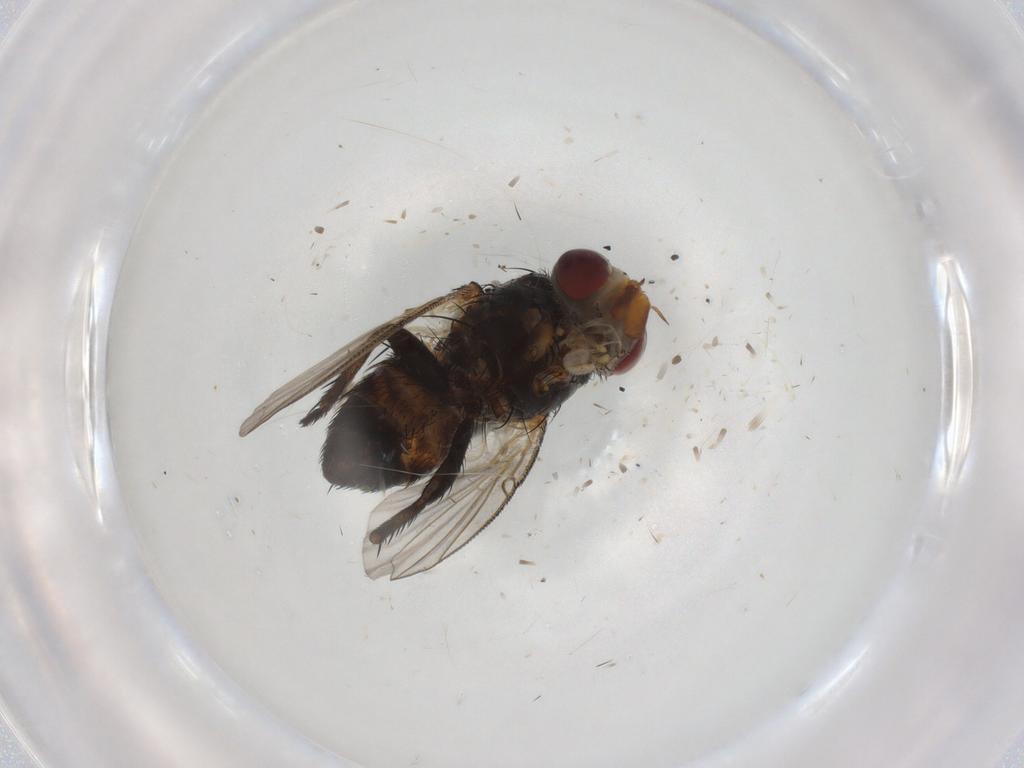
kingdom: Animalia
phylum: Arthropoda
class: Insecta
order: Diptera
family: Tachinidae
